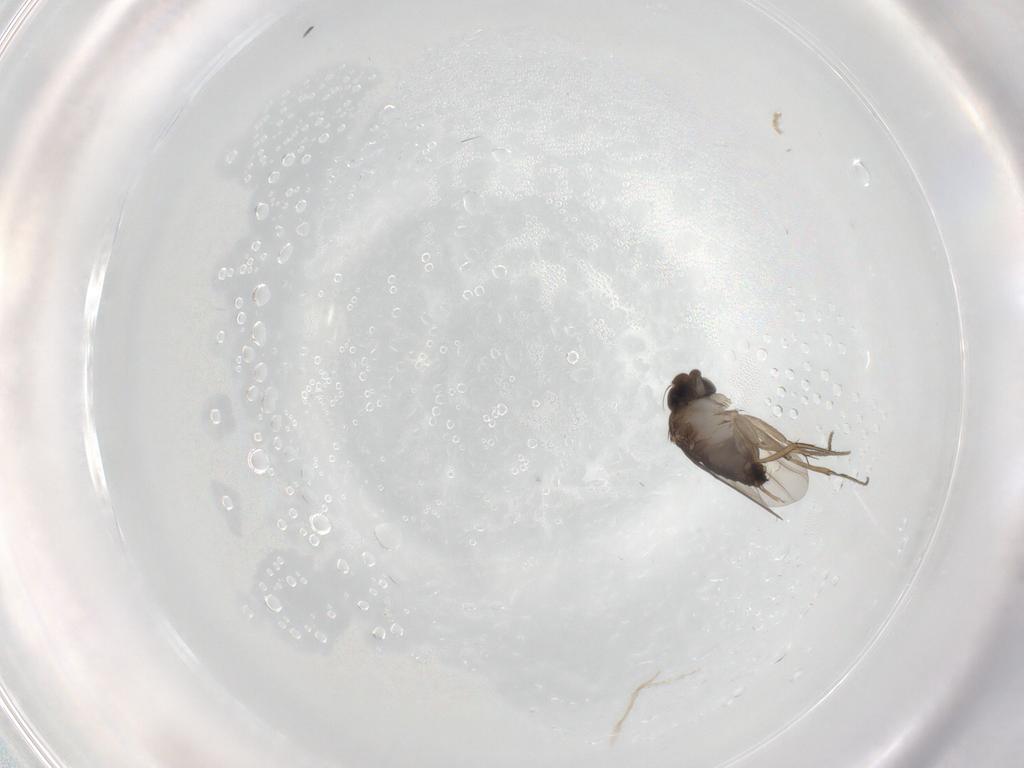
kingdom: Animalia
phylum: Arthropoda
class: Insecta
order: Diptera
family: Phoridae
